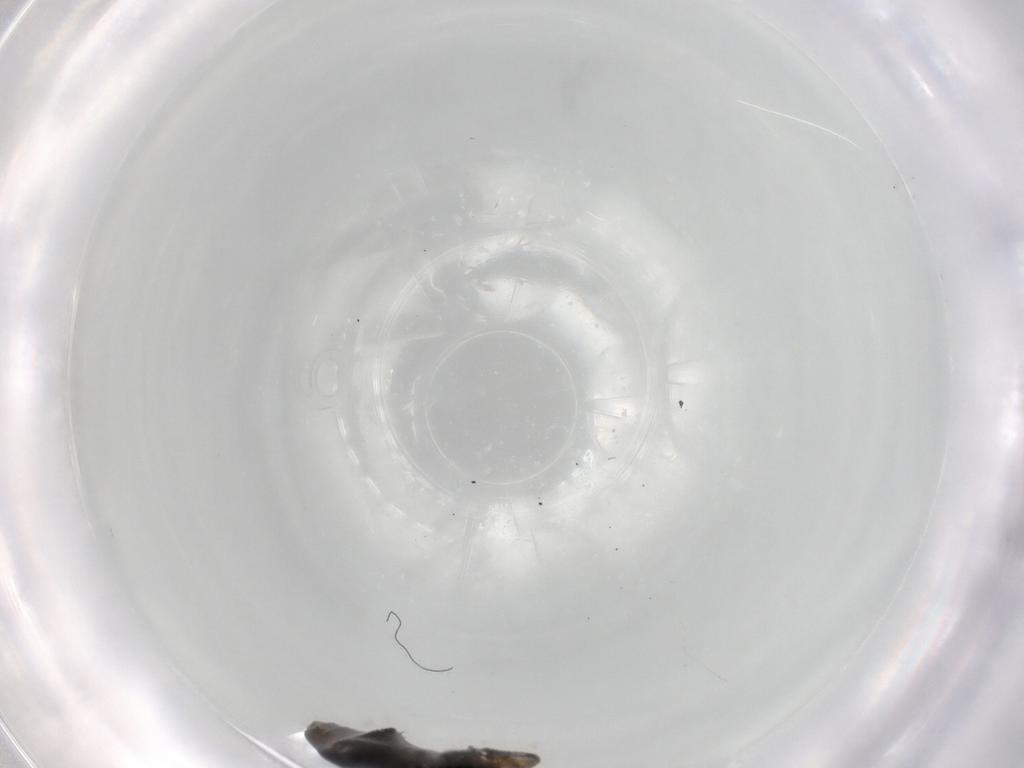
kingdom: Animalia
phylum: Arthropoda
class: Insecta
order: Coleoptera
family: Laemophloeidae
